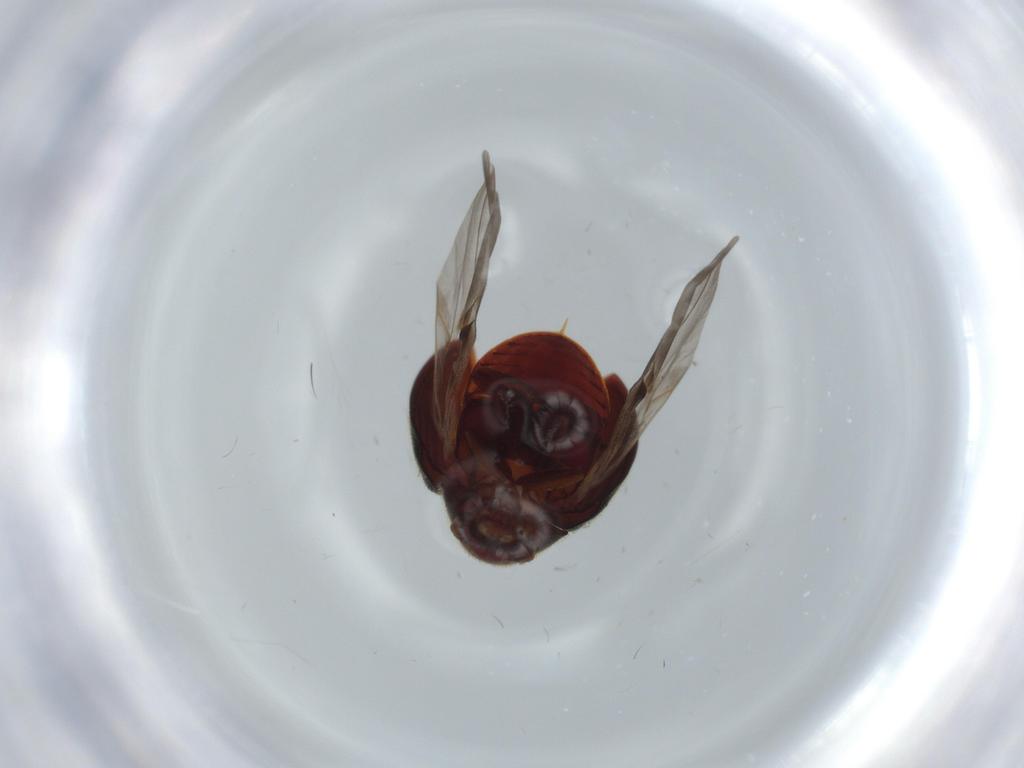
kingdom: Animalia
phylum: Arthropoda
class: Insecta
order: Coleoptera
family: Ptinidae
